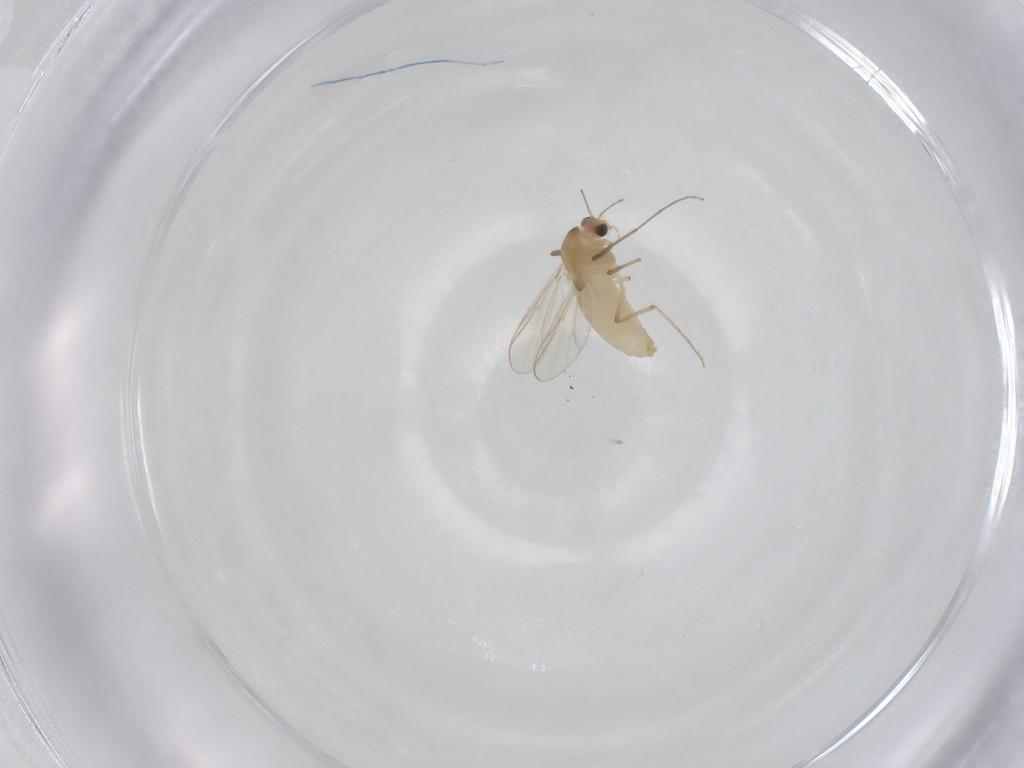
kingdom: Animalia
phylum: Arthropoda
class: Insecta
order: Diptera
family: Chironomidae
